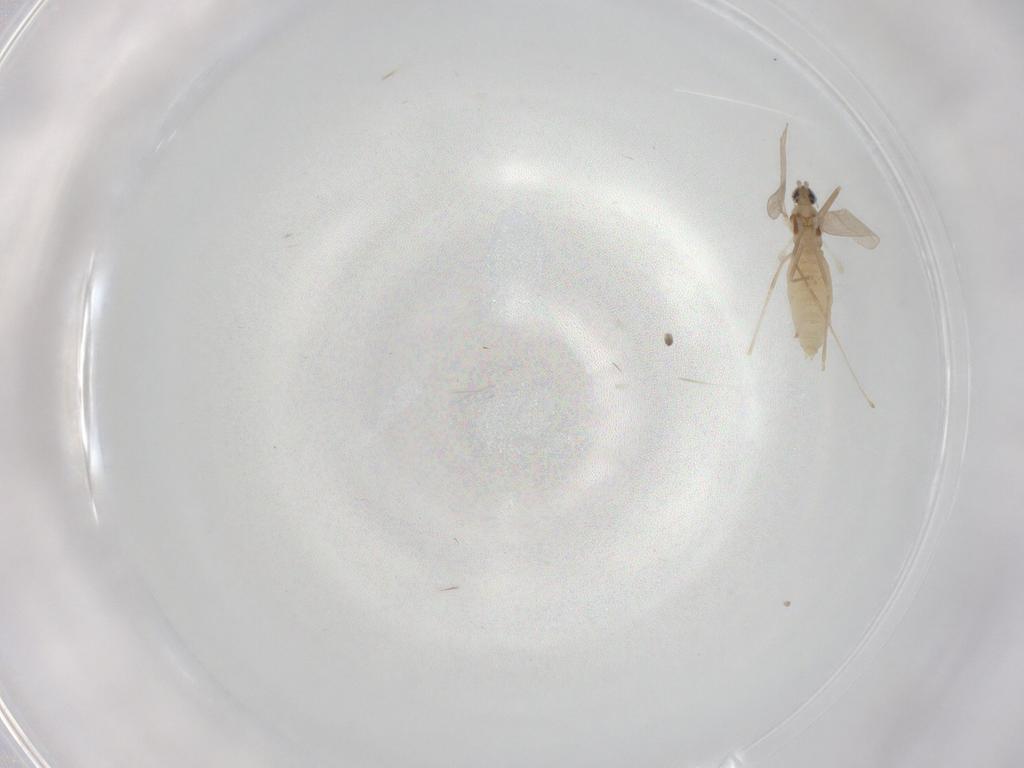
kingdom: Animalia
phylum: Arthropoda
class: Insecta
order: Diptera
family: Cecidomyiidae
